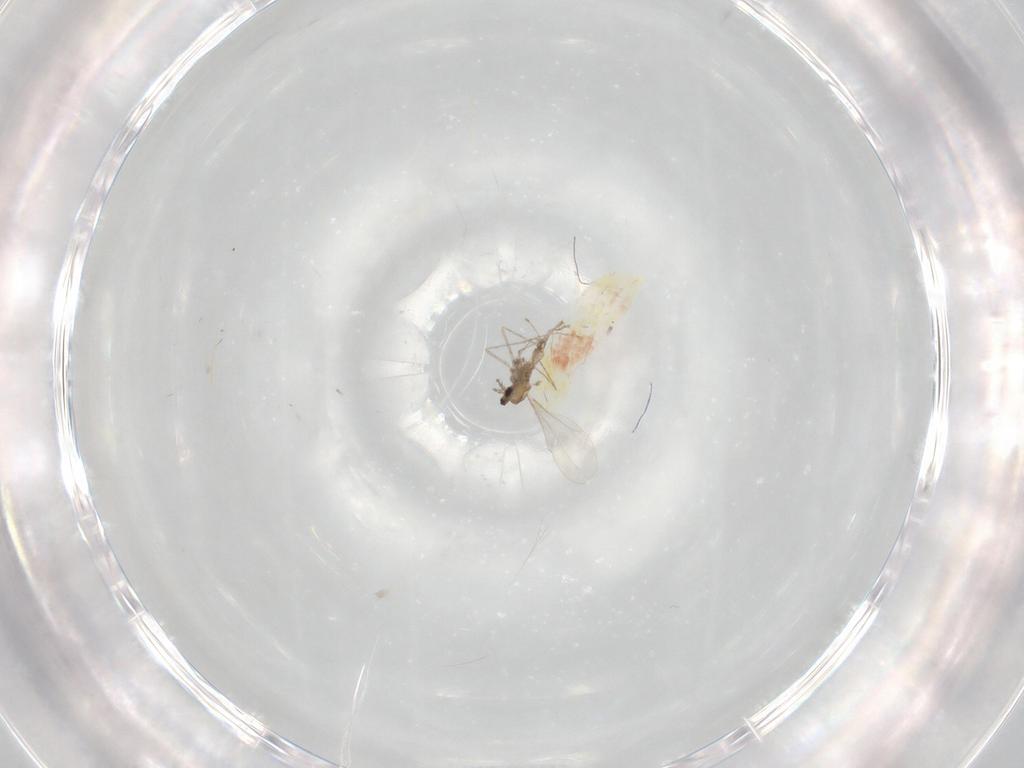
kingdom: Animalia
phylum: Arthropoda
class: Insecta
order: Diptera
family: Cecidomyiidae
